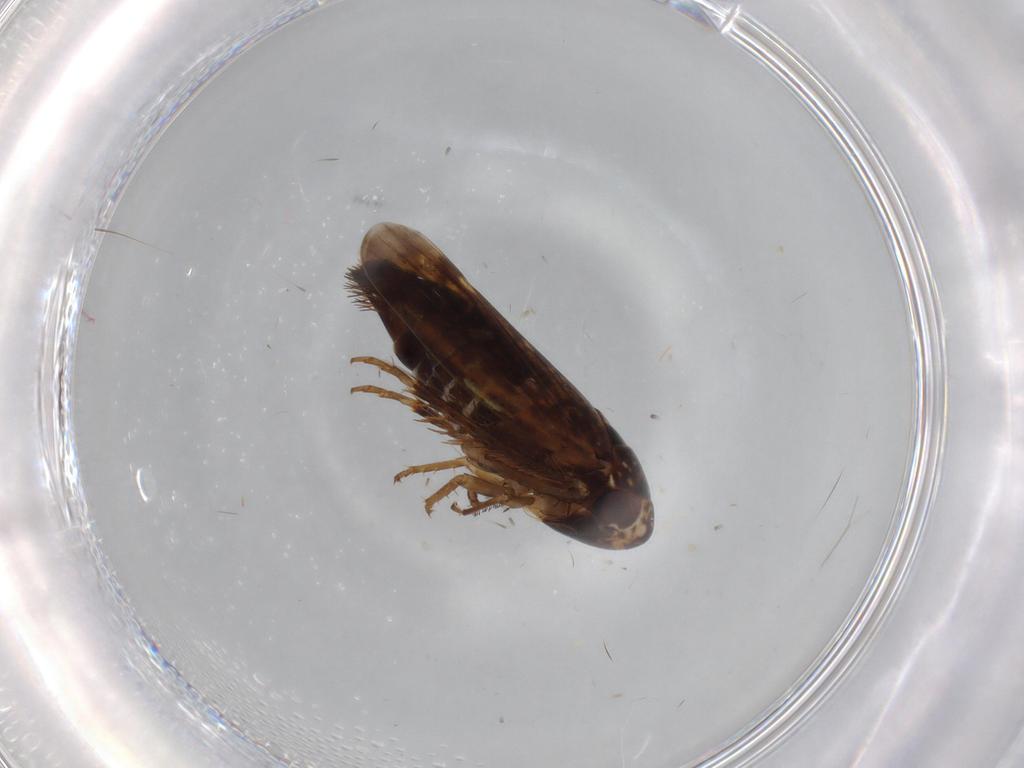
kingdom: Animalia
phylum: Arthropoda
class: Insecta
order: Hemiptera
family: Cicadellidae
